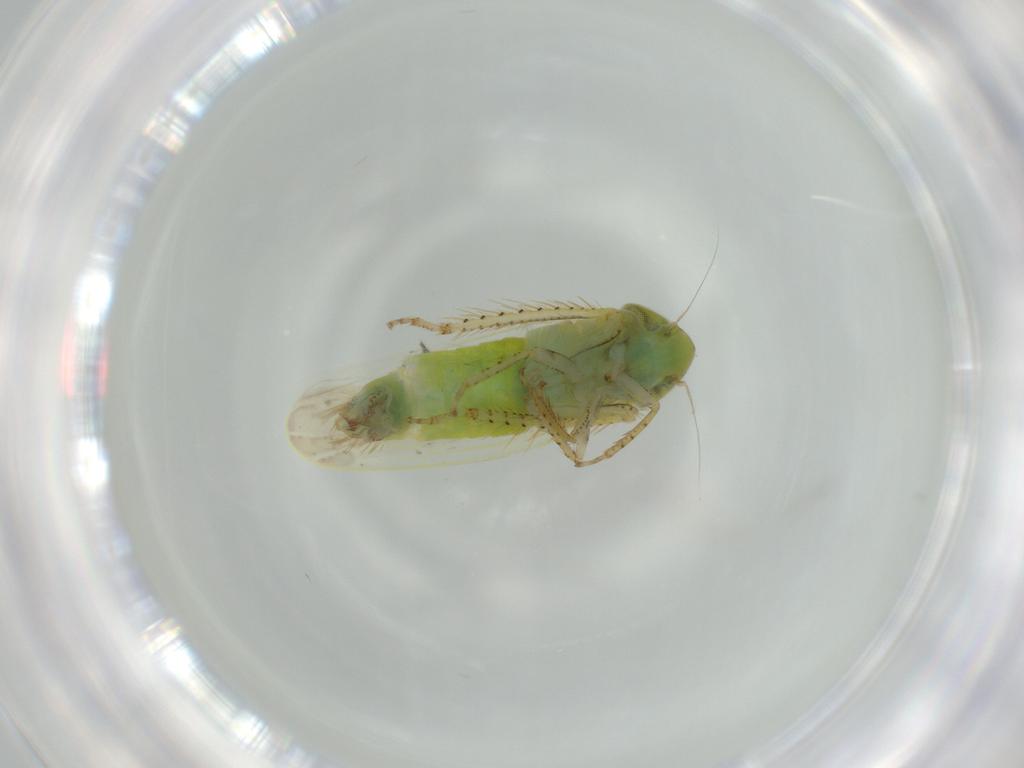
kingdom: Animalia
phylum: Arthropoda
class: Insecta
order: Hemiptera
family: Cicadellidae
